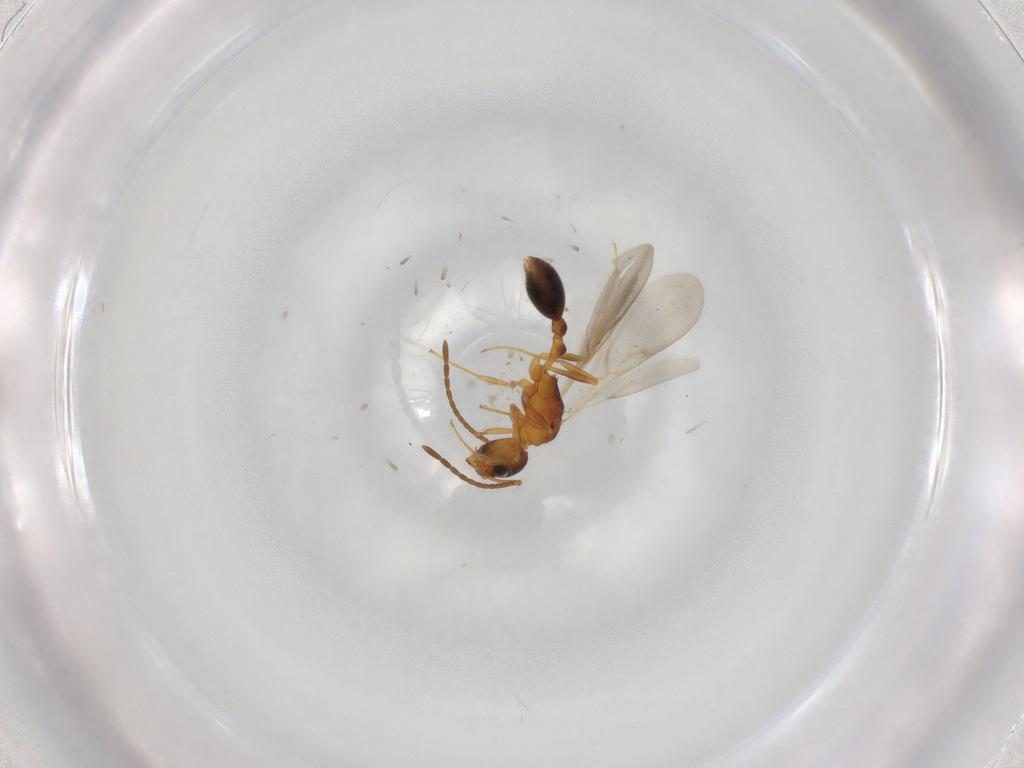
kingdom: Animalia
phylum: Arthropoda
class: Insecta
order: Hymenoptera
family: Formicidae
